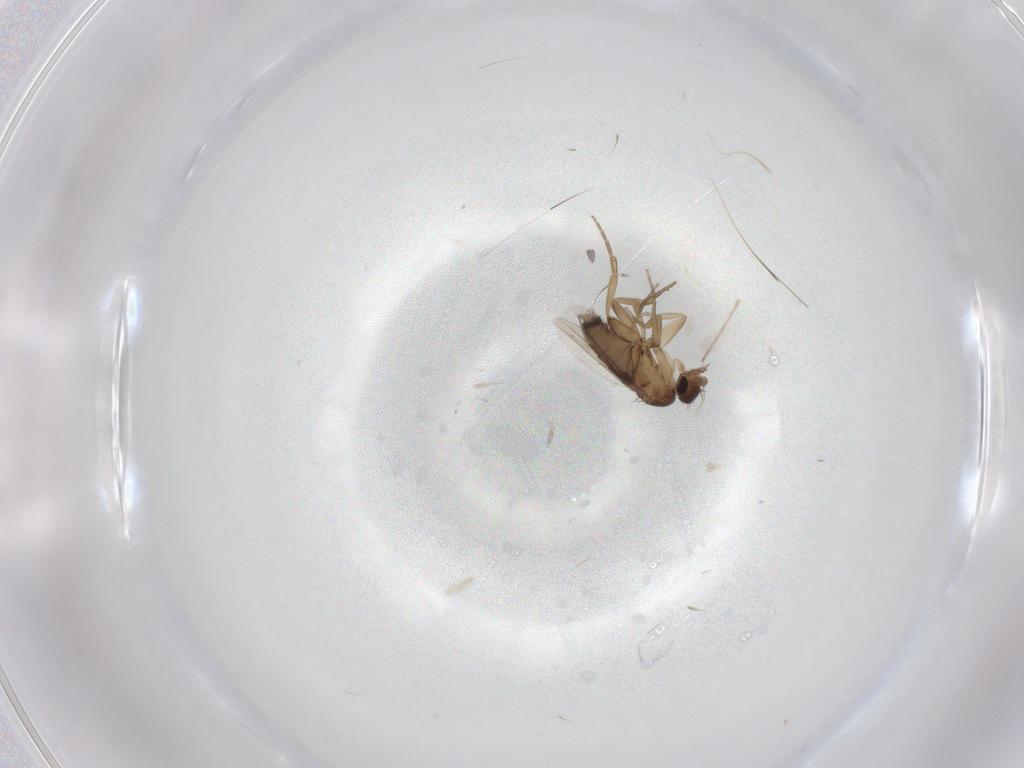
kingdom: Animalia
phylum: Arthropoda
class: Insecta
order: Diptera
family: Phoridae
